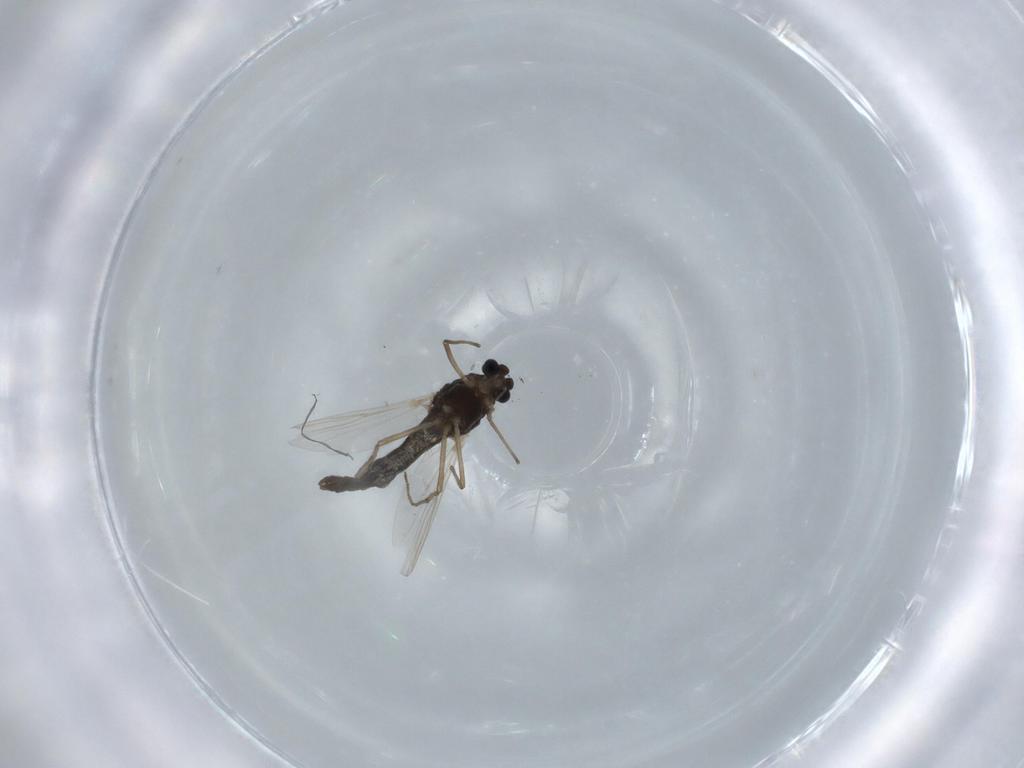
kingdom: Animalia
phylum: Arthropoda
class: Insecta
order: Diptera
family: Chironomidae
